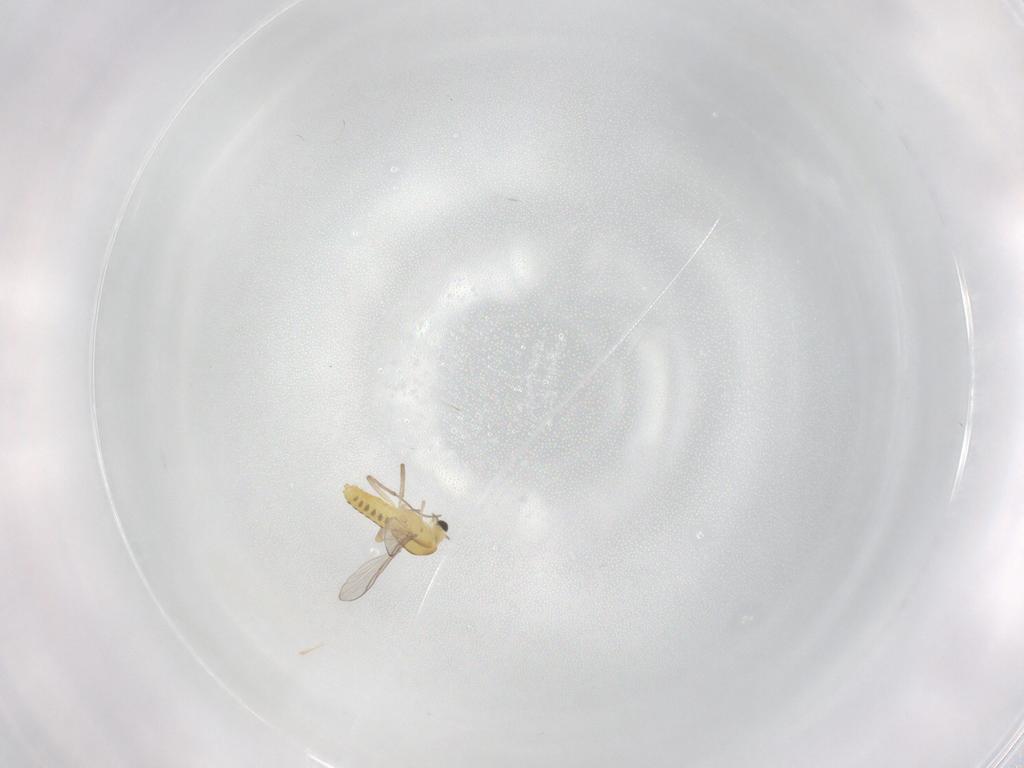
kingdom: Animalia
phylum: Arthropoda
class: Insecta
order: Diptera
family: Chironomidae
